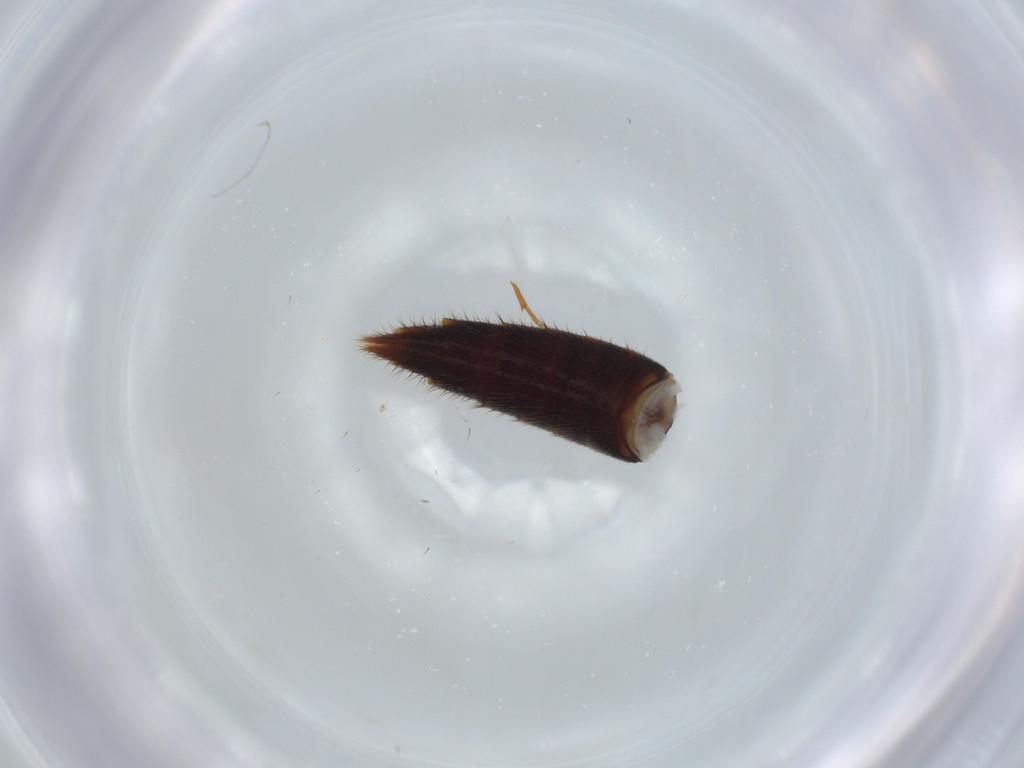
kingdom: Animalia
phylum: Arthropoda
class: Insecta
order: Coleoptera
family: Staphylinidae
